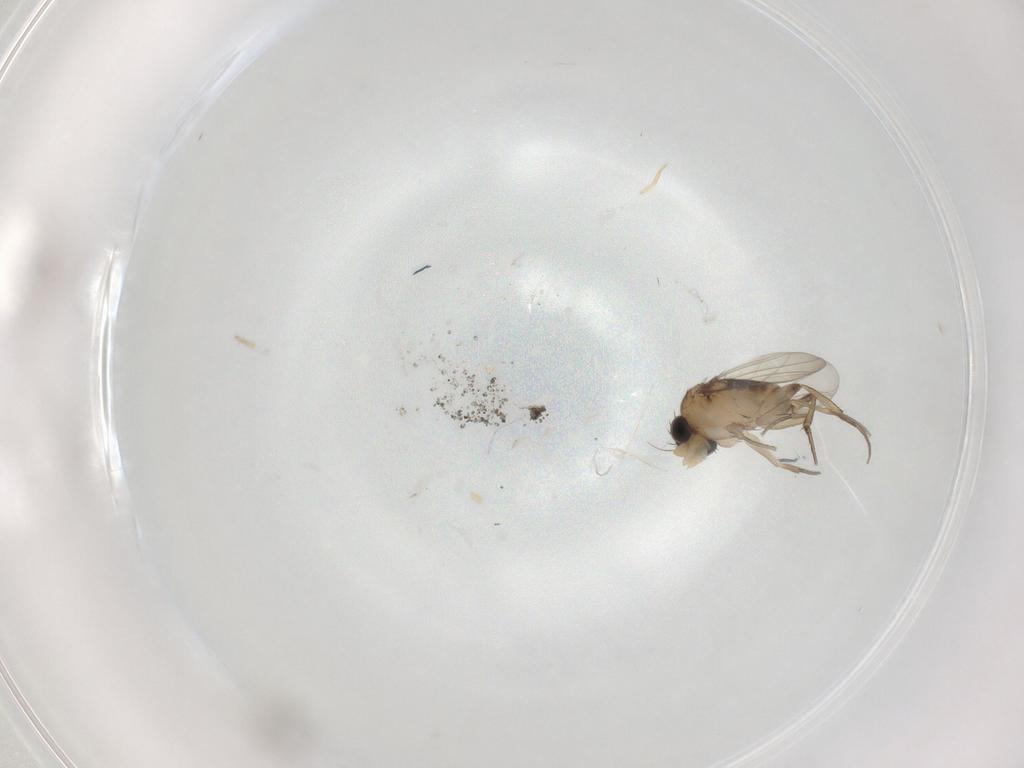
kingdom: Animalia
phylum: Arthropoda
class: Insecta
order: Diptera
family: Phoridae
